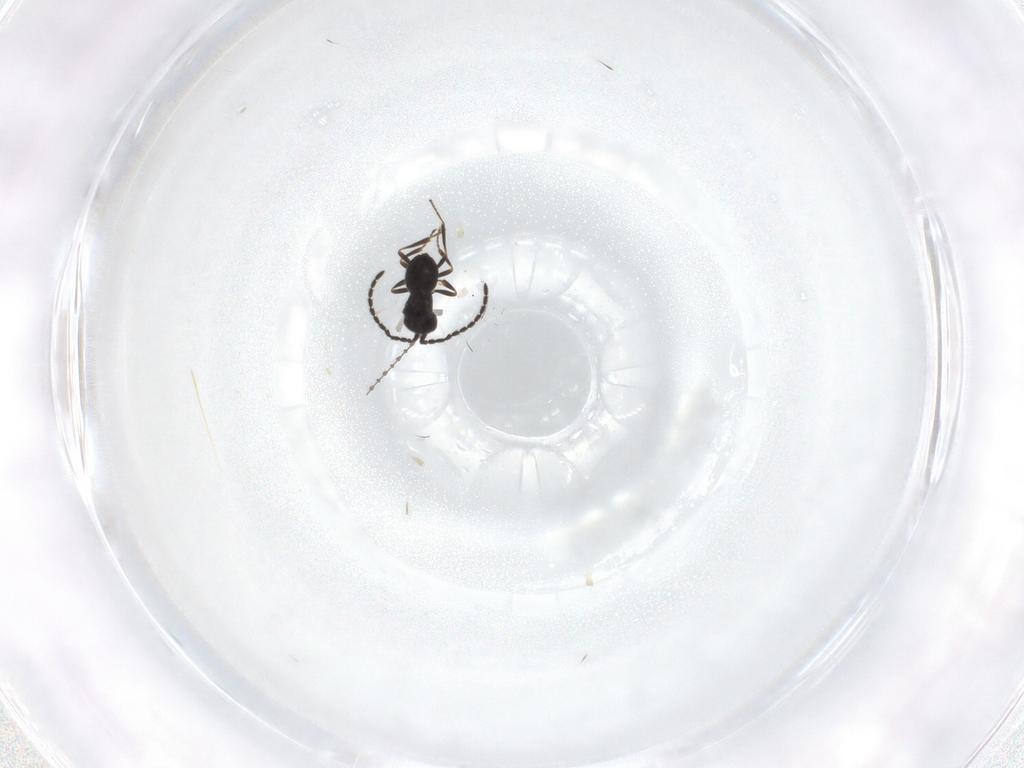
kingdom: Animalia
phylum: Arthropoda
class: Insecta
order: Hymenoptera
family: Scelionidae
